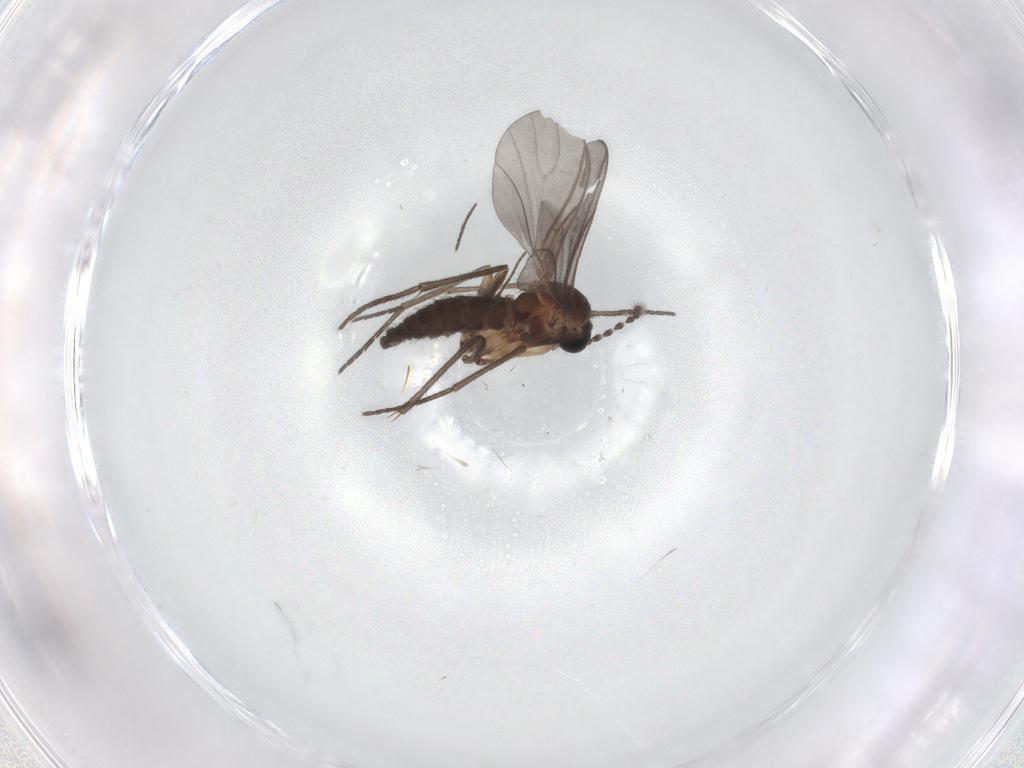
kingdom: Animalia
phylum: Arthropoda
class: Insecta
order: Diptera
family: Sciaridae
